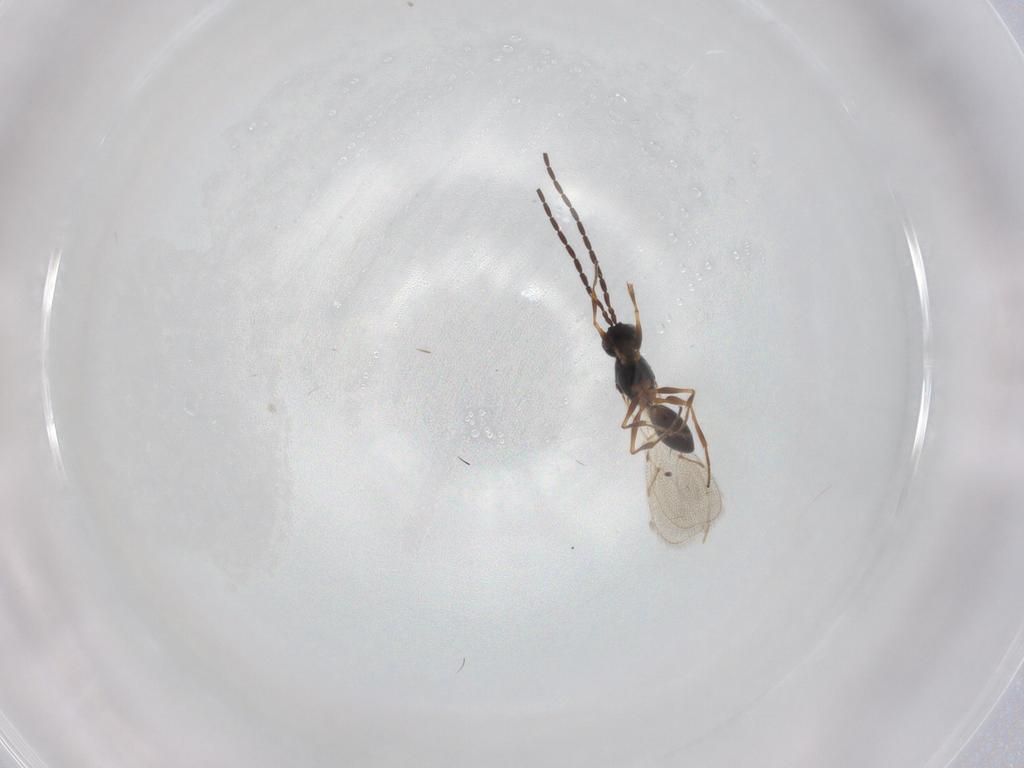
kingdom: Animalia
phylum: Arthropoda
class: Insecta
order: Hymenoptera
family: Figitidae
